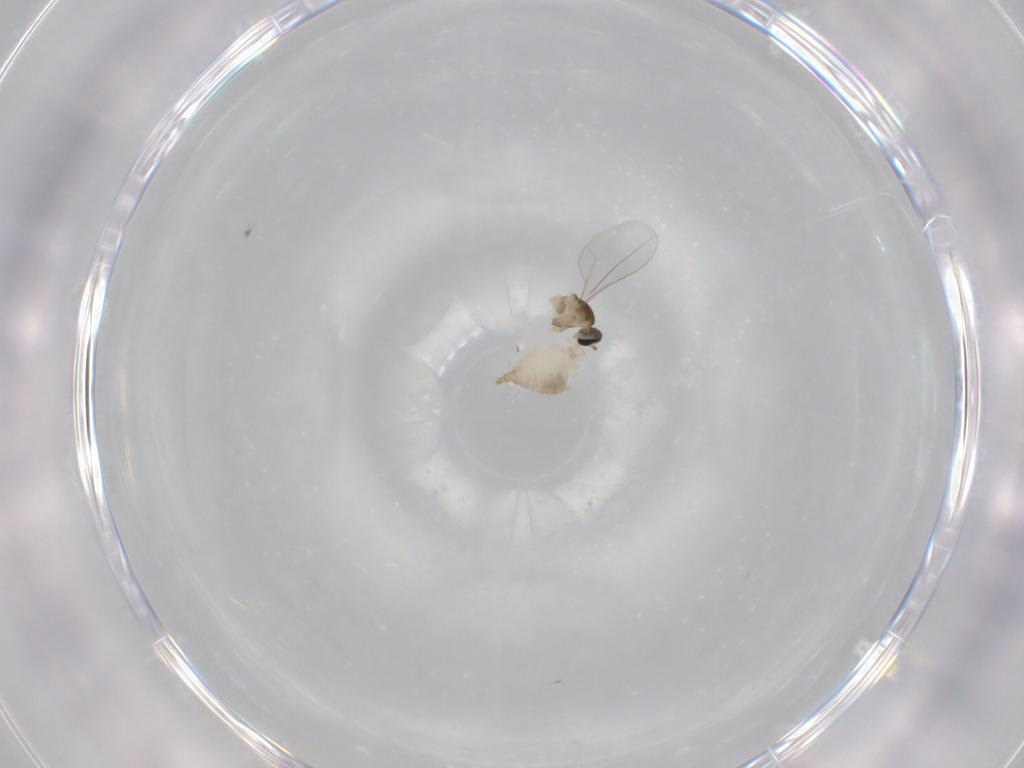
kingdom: Animalia
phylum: Arthropoda
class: Insecta
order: Diptera
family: Cecidomyiidae
